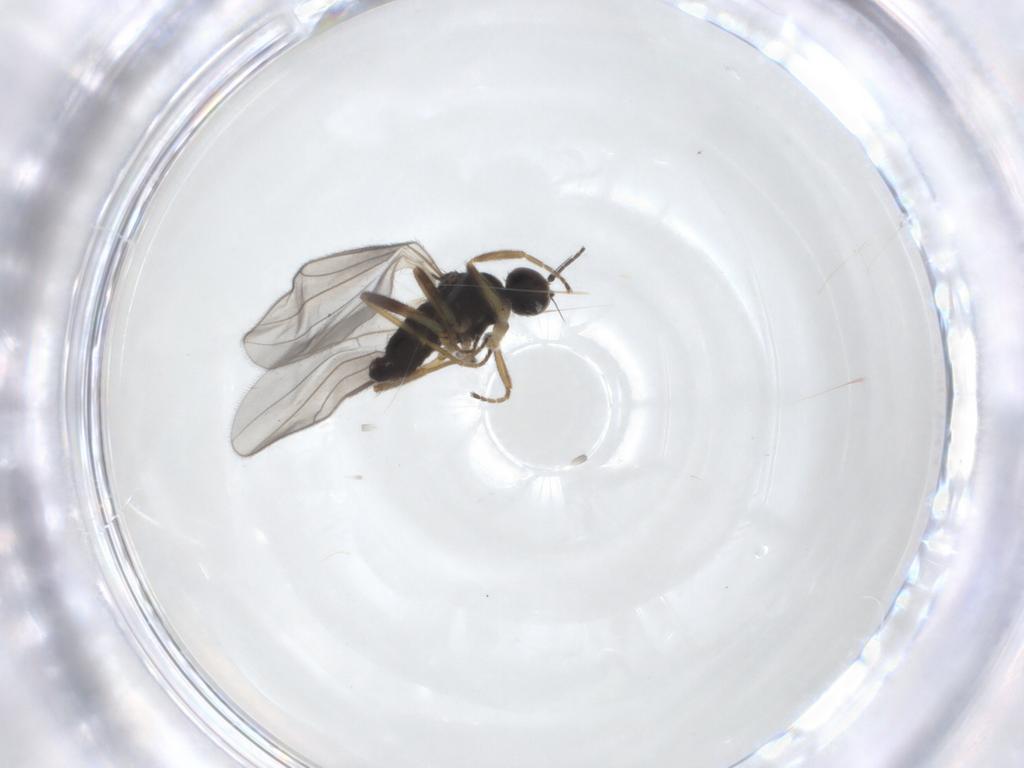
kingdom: Animalia
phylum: Arthropoda
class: Insecta
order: Diptera
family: Hybotidae
